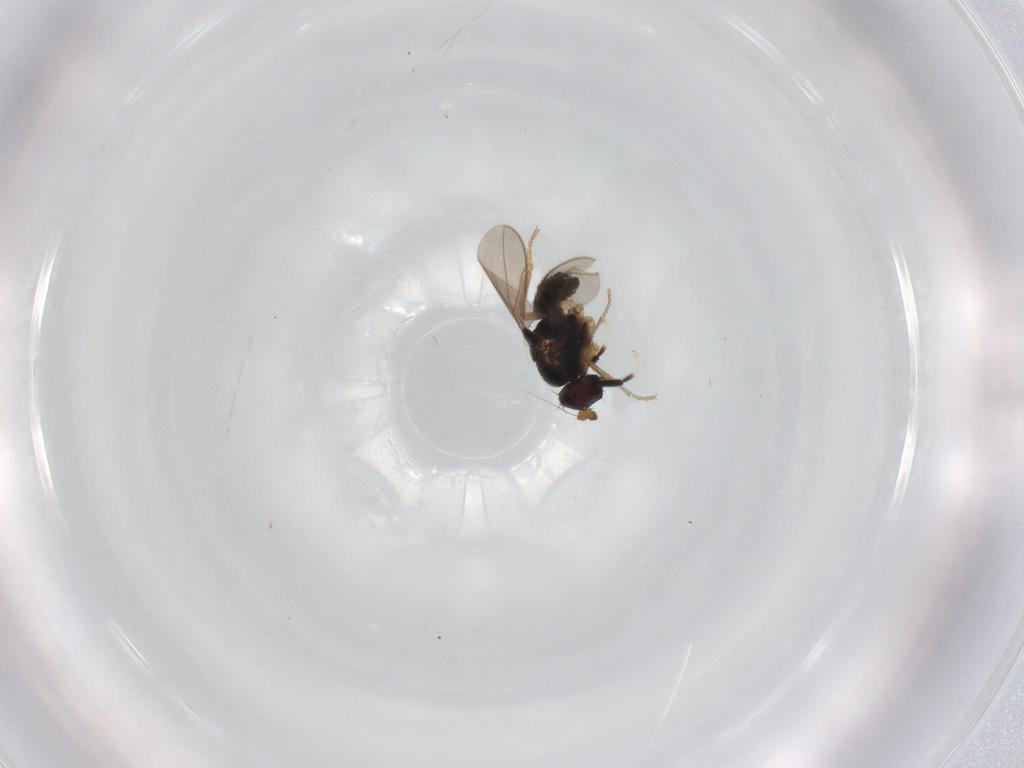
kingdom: Animalia
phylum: Arthropoda
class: Insecta
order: Diptera
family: Sphaeroceridae
